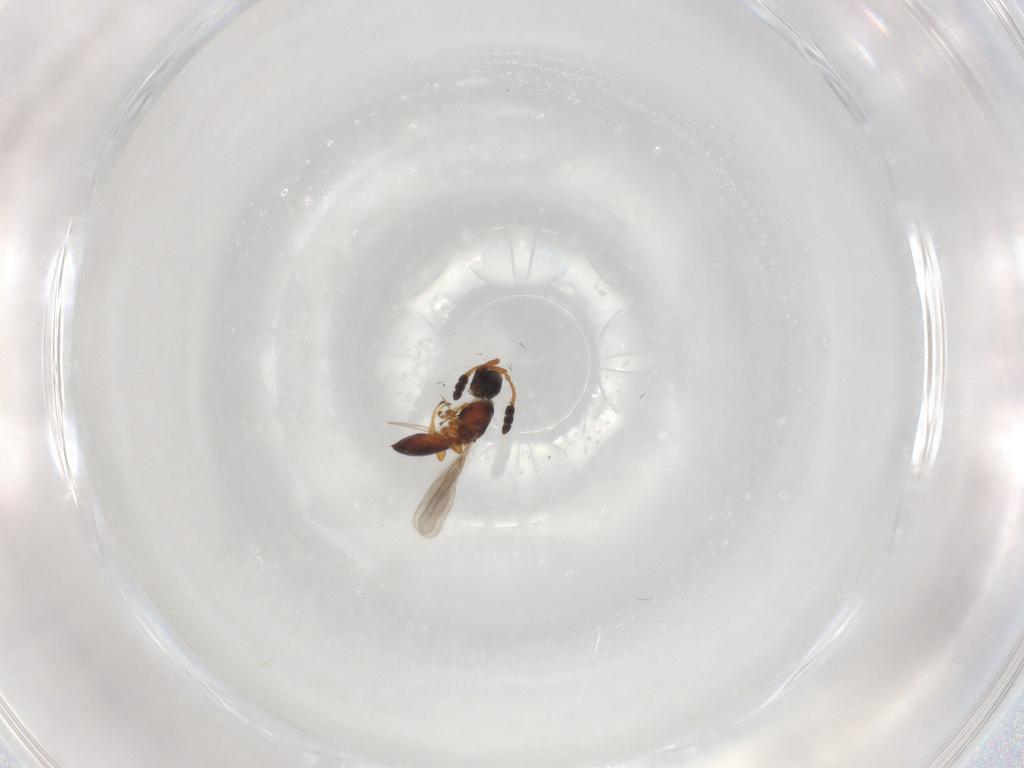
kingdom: Animalia
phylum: Arthropoda
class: Insecta
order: Hymenoptera
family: Diapriidae
